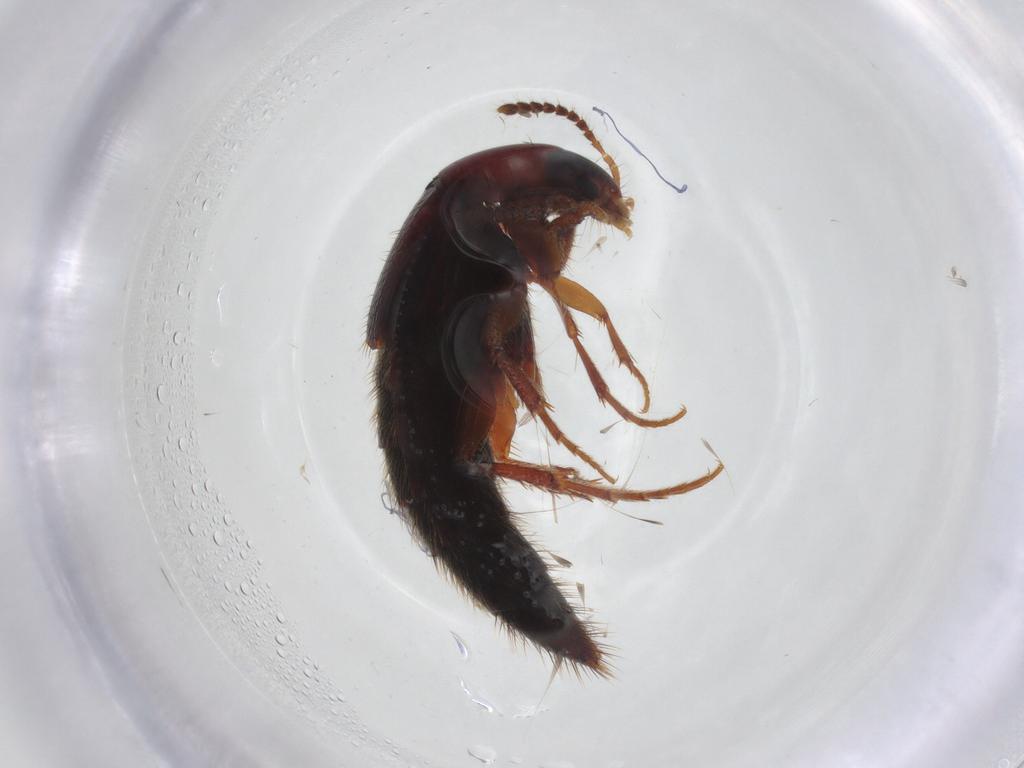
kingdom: Animalia
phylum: Arthropoda
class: Insecta
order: Coleoptera
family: Staphylinidae
